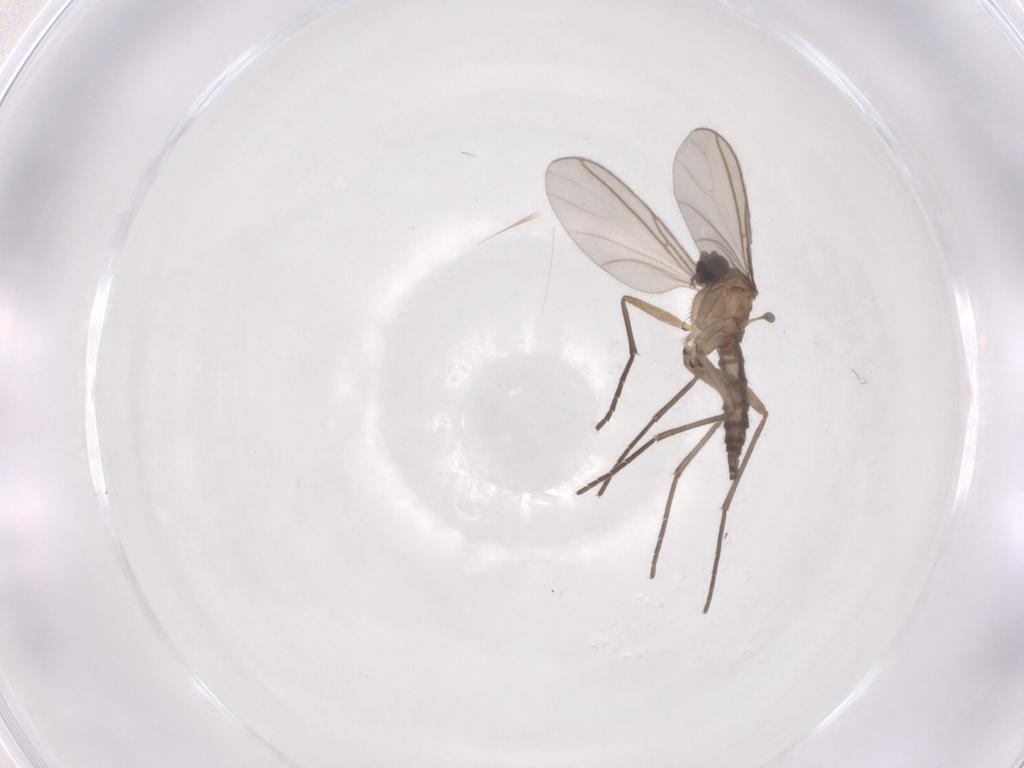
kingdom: Animalia
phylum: Arthropoda
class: Insecta
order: Diptera
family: Sciaridae
